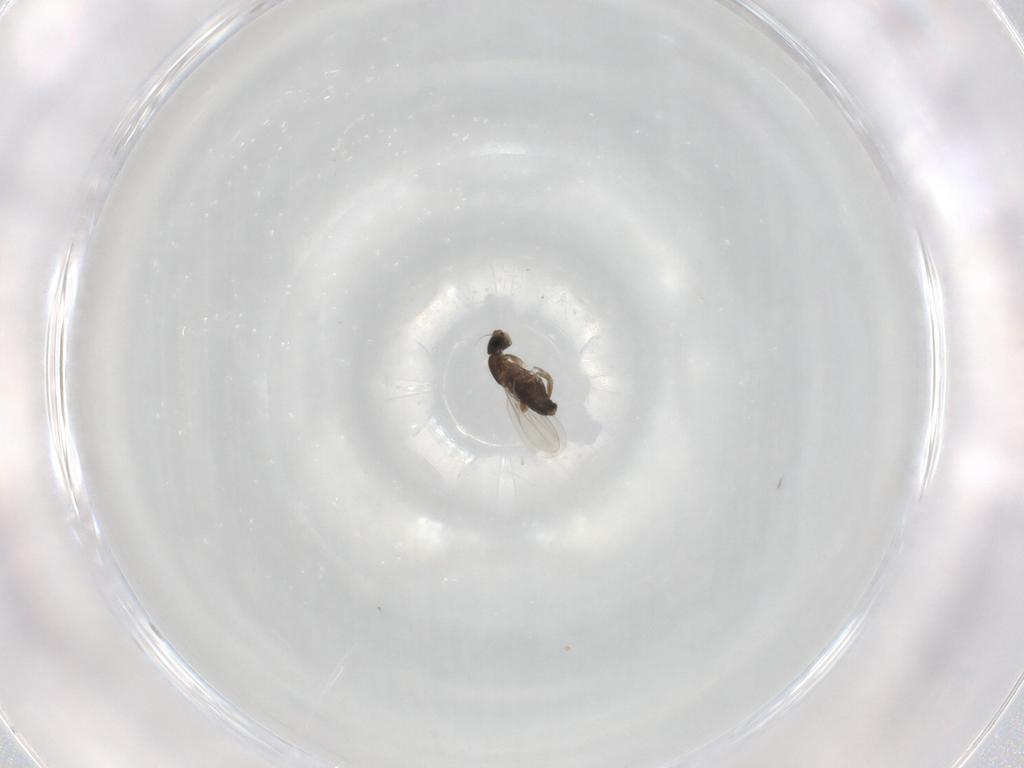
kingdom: Animalia
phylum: Arthropoda
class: Insecta
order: Diptera
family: Phoridae
